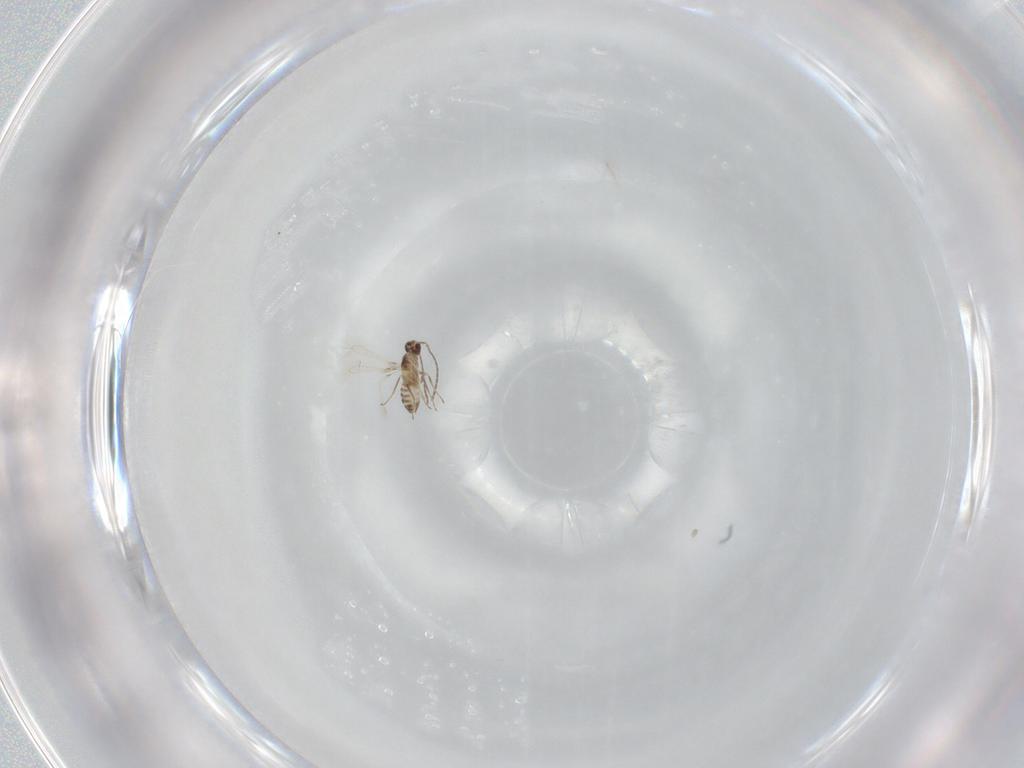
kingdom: Animalia
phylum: Arthropoda
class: Insecta
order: Hymenoptera
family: Mymaridae
